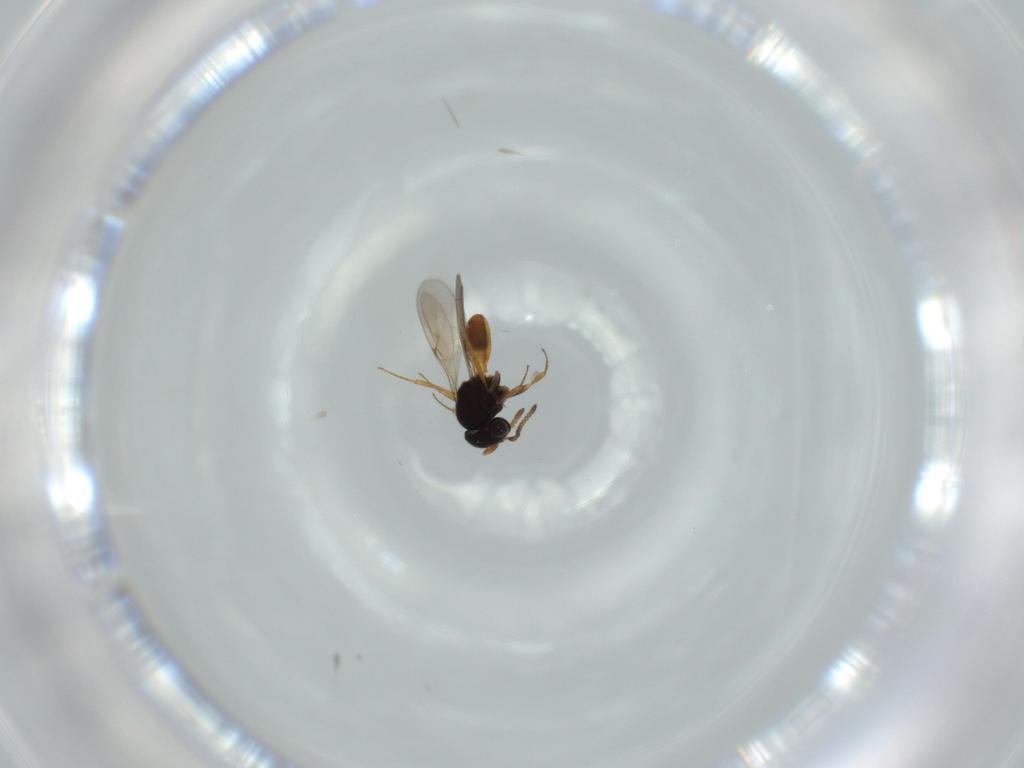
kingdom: Animalia
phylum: Arthropoda
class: Insecta
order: Hymenoptera
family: Scelionidae
